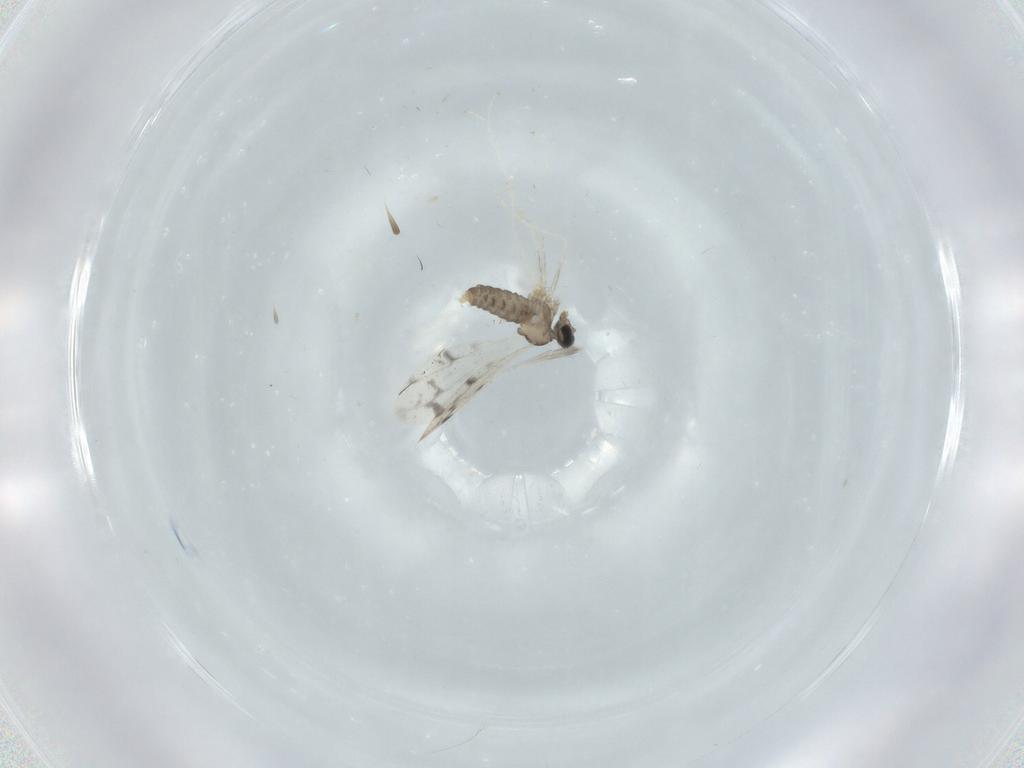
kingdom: Animalia
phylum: Arthropoda
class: Insecta
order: Diptera
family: Cecidomyiidae
